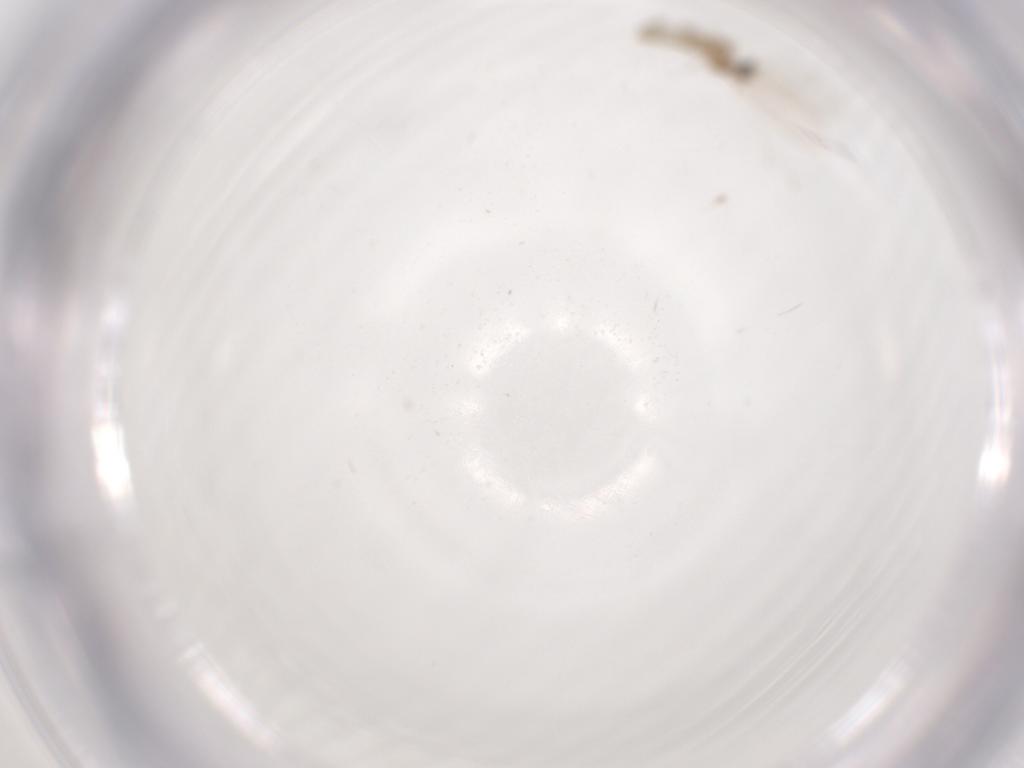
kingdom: Animalia
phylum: Arthropoda
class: Insecta
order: Diptera
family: Cecidomyiidae
